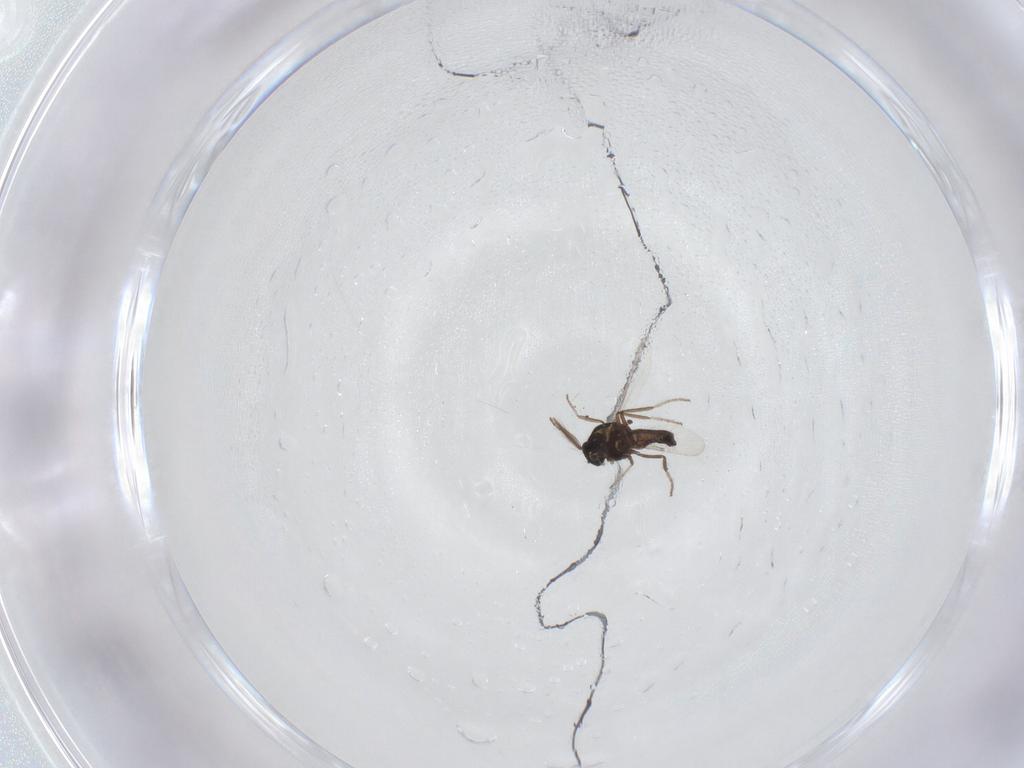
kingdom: Animalia
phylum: Arthropoda
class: Insecta
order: Diptera
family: Ceratopogonidae
